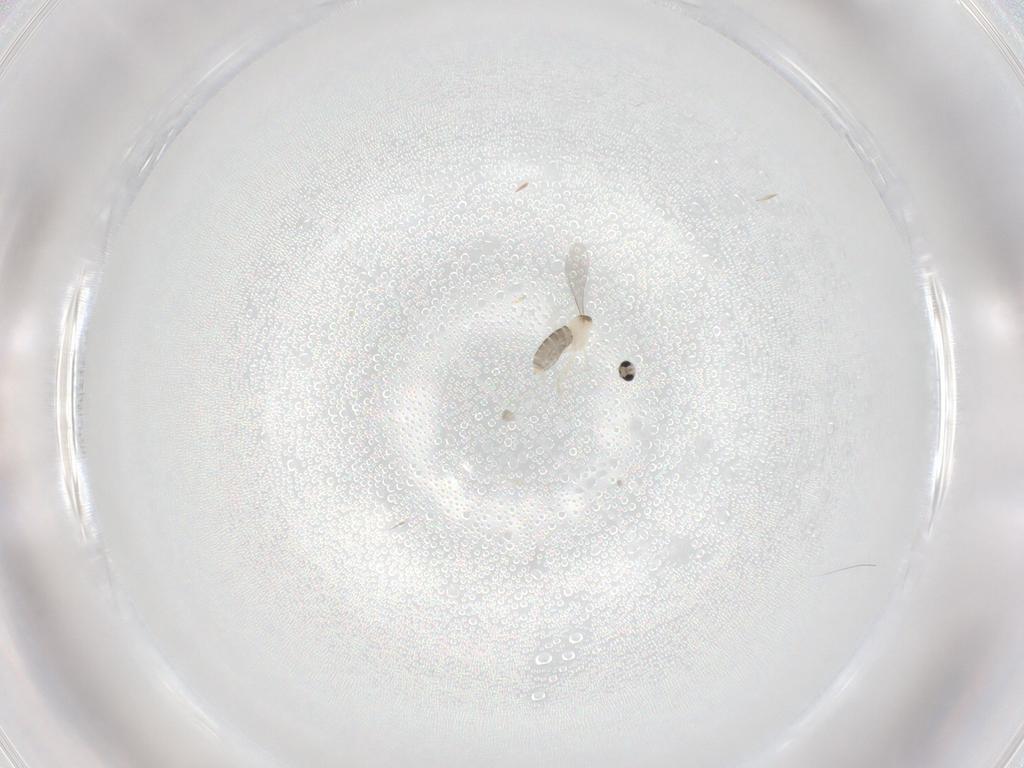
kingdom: Animalia
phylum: Arthropoda
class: Insecta
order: Diptera
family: Cecidomyiidae
